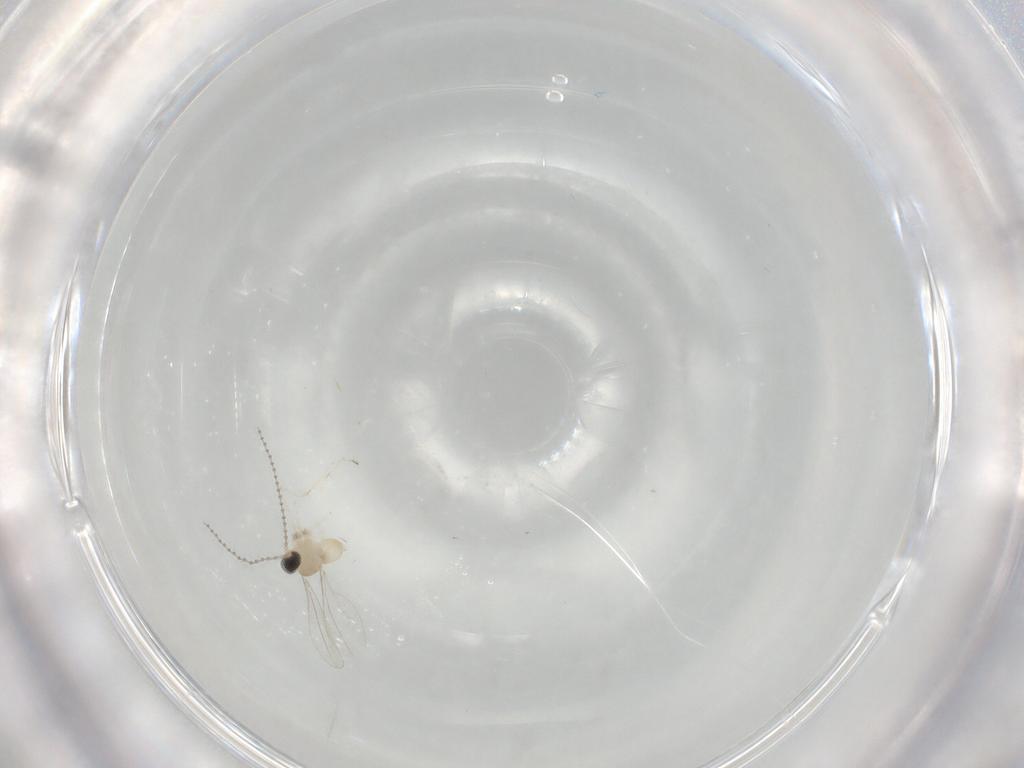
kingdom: Animalia
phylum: Arthropoda
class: Insecta
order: Diptera
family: Cecidomyiidae
